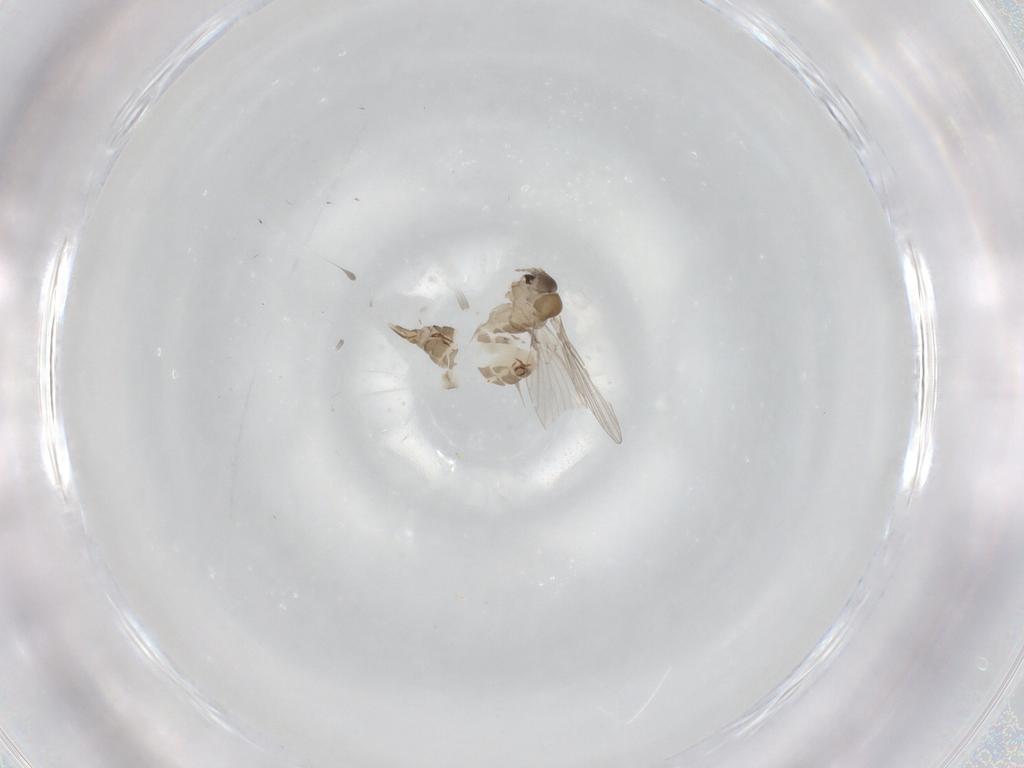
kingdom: Animalia
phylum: Arthropoda
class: Insecta
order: Diptera
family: Psychodidae
